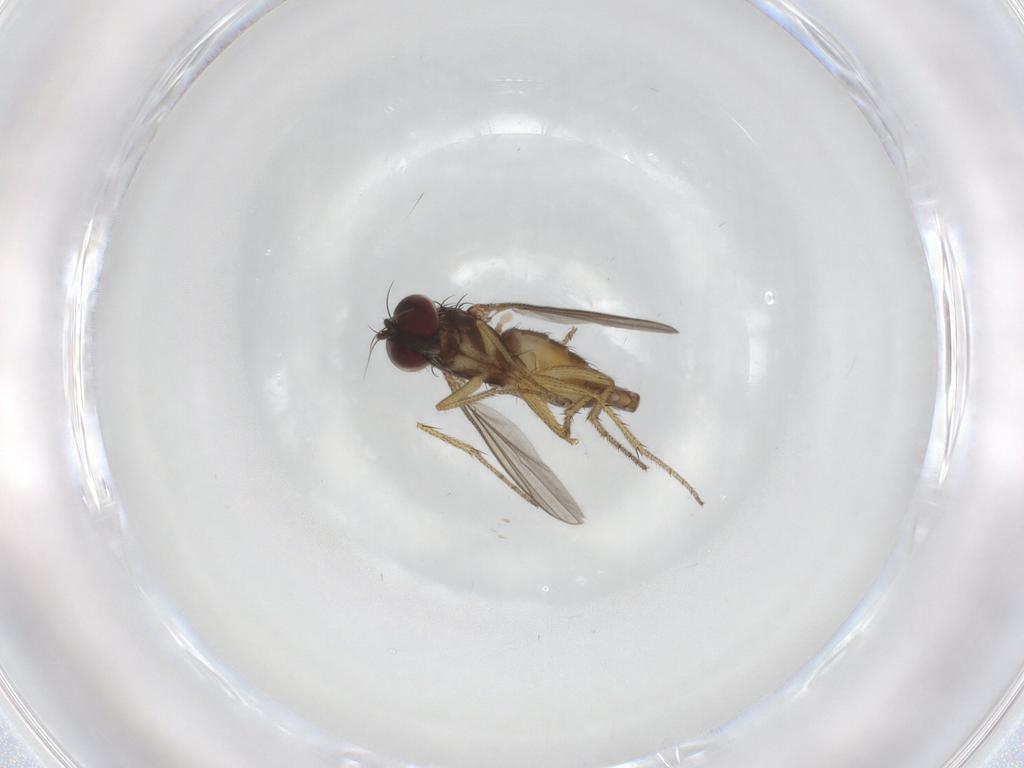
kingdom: Animalia
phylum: Arthropoda
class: Insecta
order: Diptera
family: Dolichopodidae
